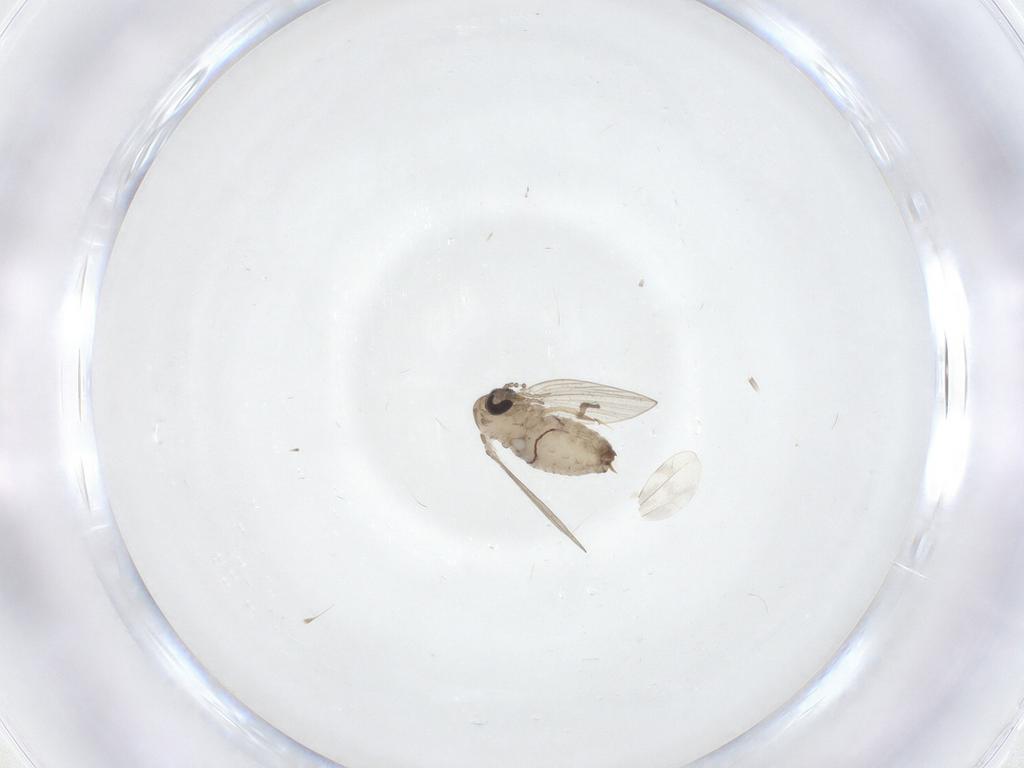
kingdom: Animalia
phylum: Arthropoda
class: Insecta
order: Diptera
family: Psychodidae
